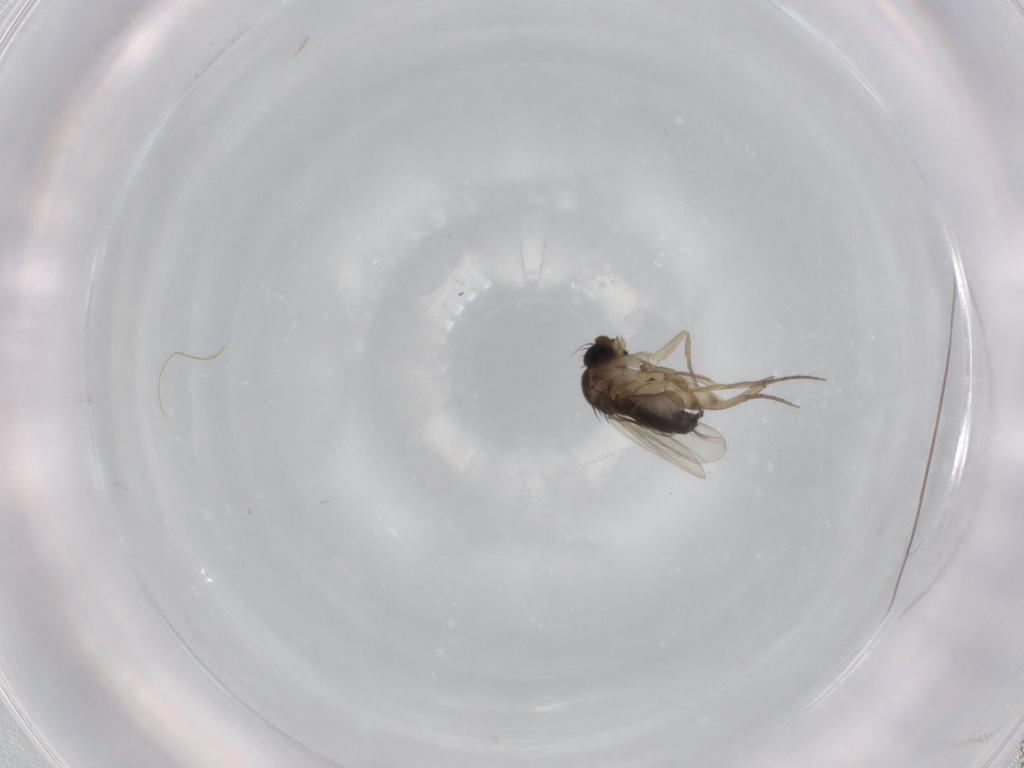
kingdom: Animalia
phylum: Arthropoda
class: Insecta
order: Diptera
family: Phoridae
